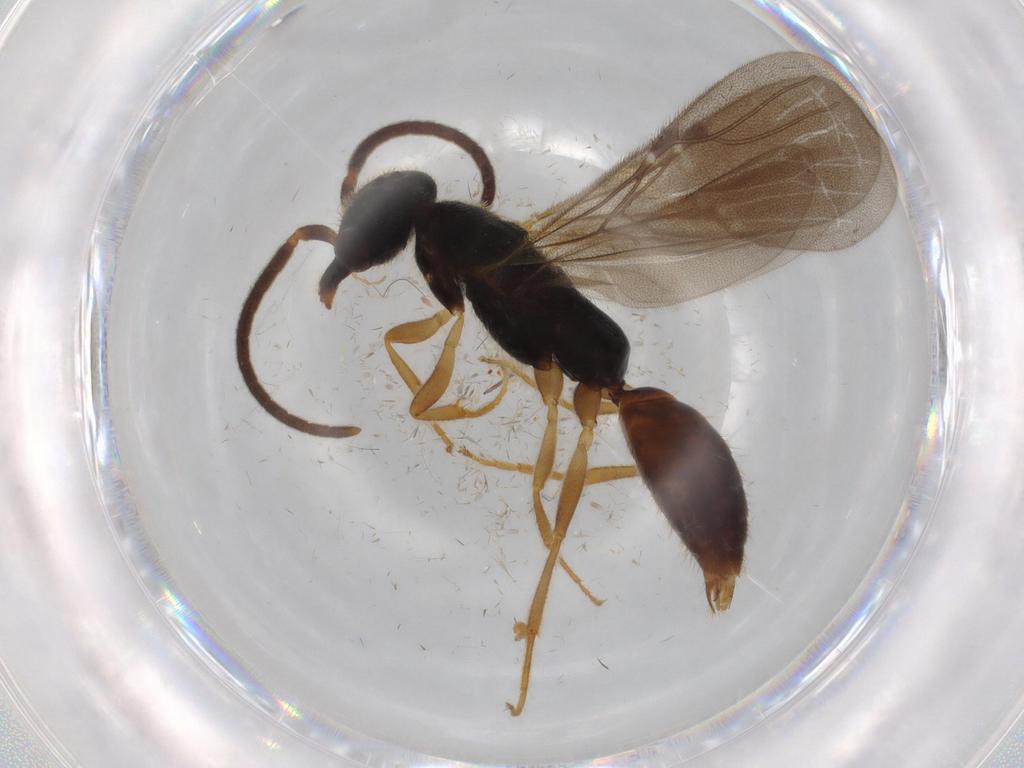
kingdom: Animalia
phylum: Arthropoda
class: Insecta
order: Hymenoptera
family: Bethylidae
